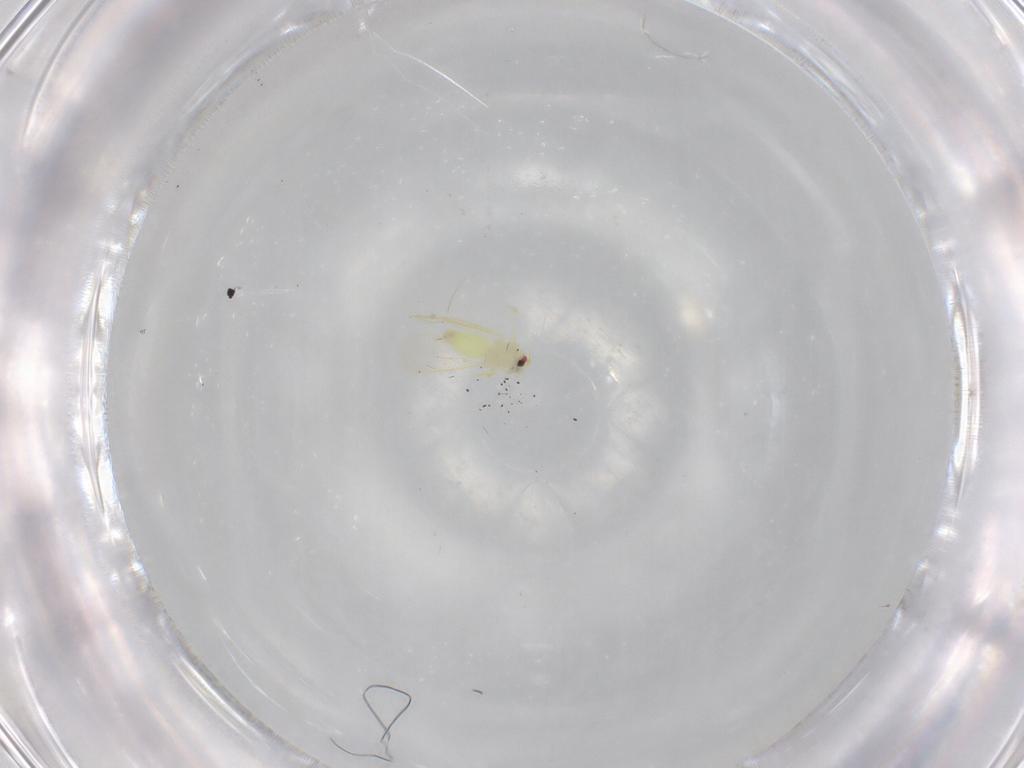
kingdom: Animalia
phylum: Arthropoda
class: Insecta
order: Hemiptera
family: Aleyrodidae
